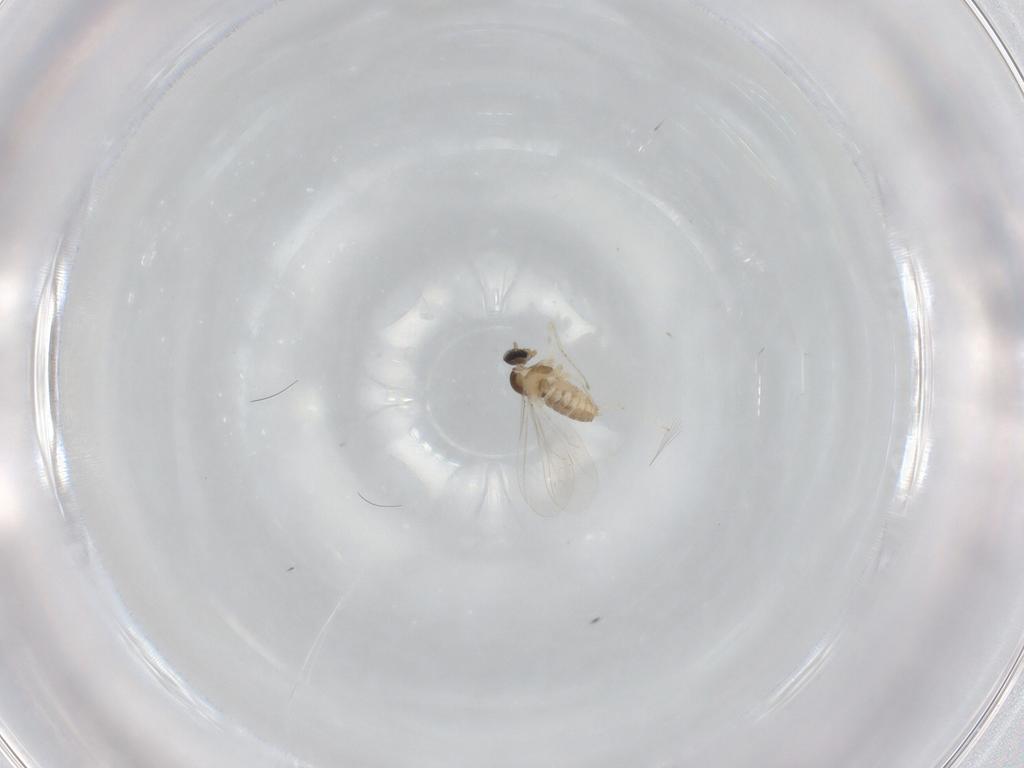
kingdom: Animalia
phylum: Arthropoda
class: Insecta
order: Diptera
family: Cecidomyiidae
